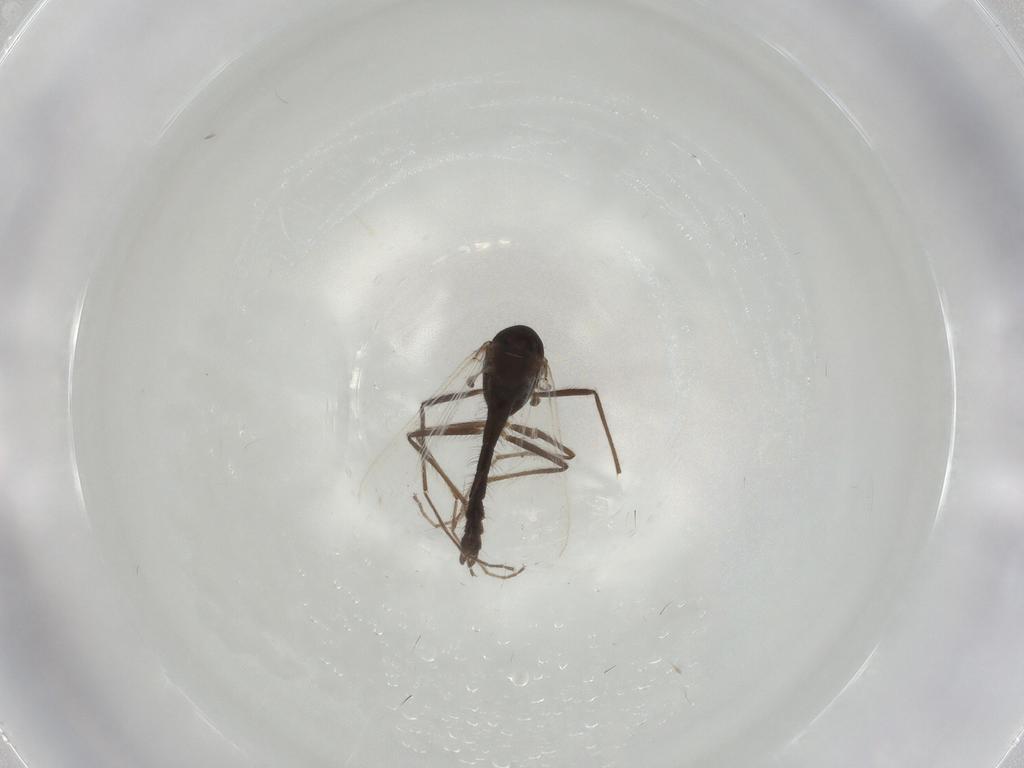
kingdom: Animalia
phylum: Arthropoda
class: Insecta
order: Diptera
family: Chironomidae
